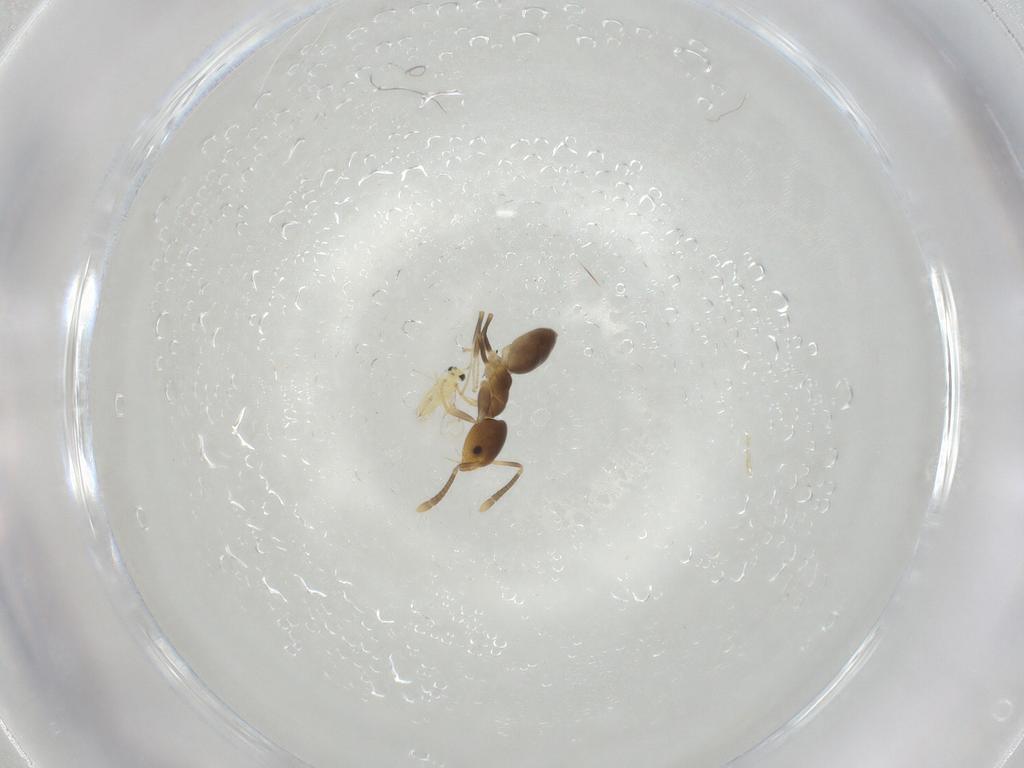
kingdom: Animalia
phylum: Arthropoda
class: Insecta
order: Hymenoptera
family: Formicidae
